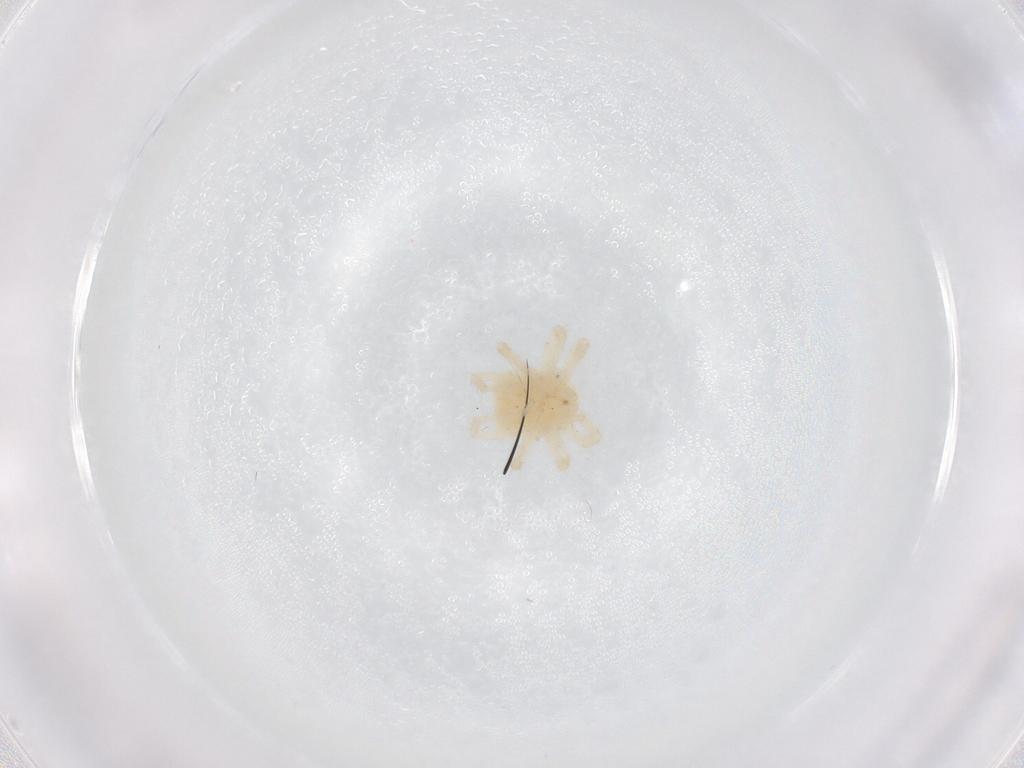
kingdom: Animalia
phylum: Arthropoda
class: Arachnida
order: Trombidiformes
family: Anystidae
